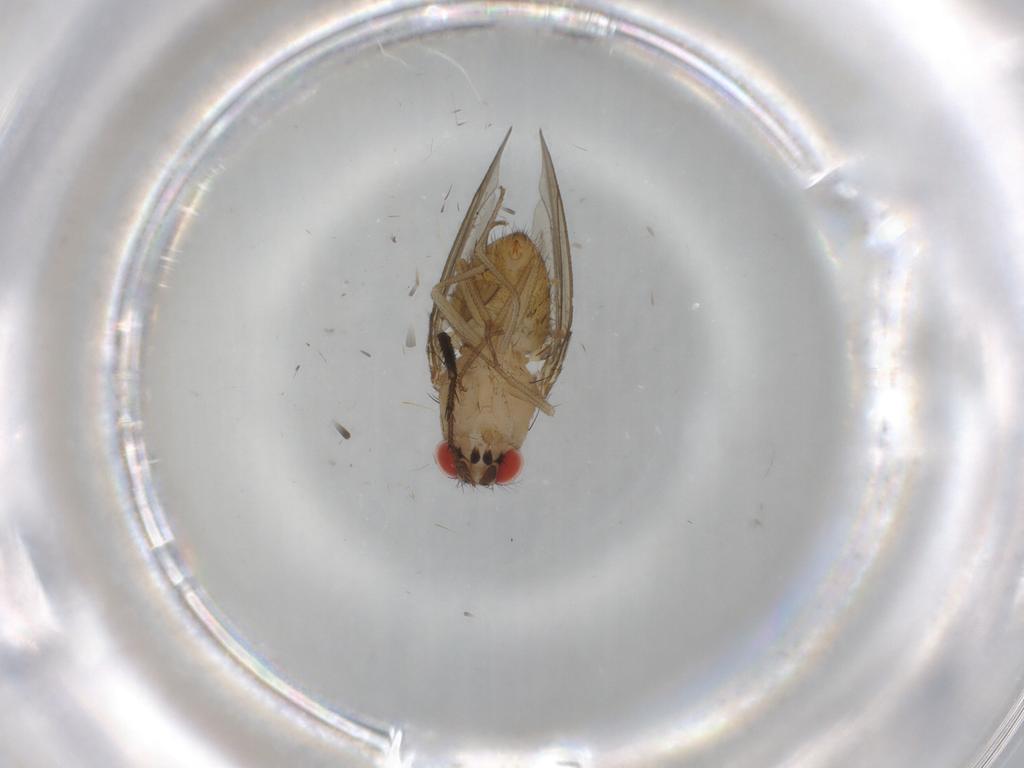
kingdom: Animalia
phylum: Arthropoda
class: Insecta
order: Diptera
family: Drosophilidae
